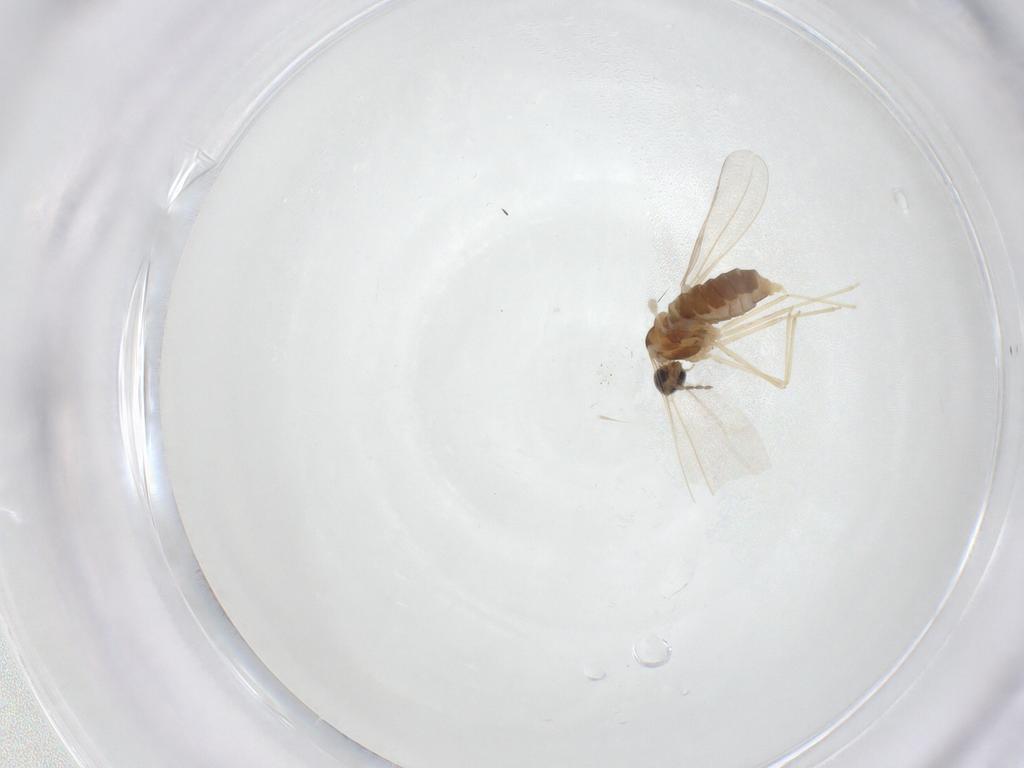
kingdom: Animalia
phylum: Arthropoda
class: Insecta
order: Diptera
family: Cecidomyiidae
